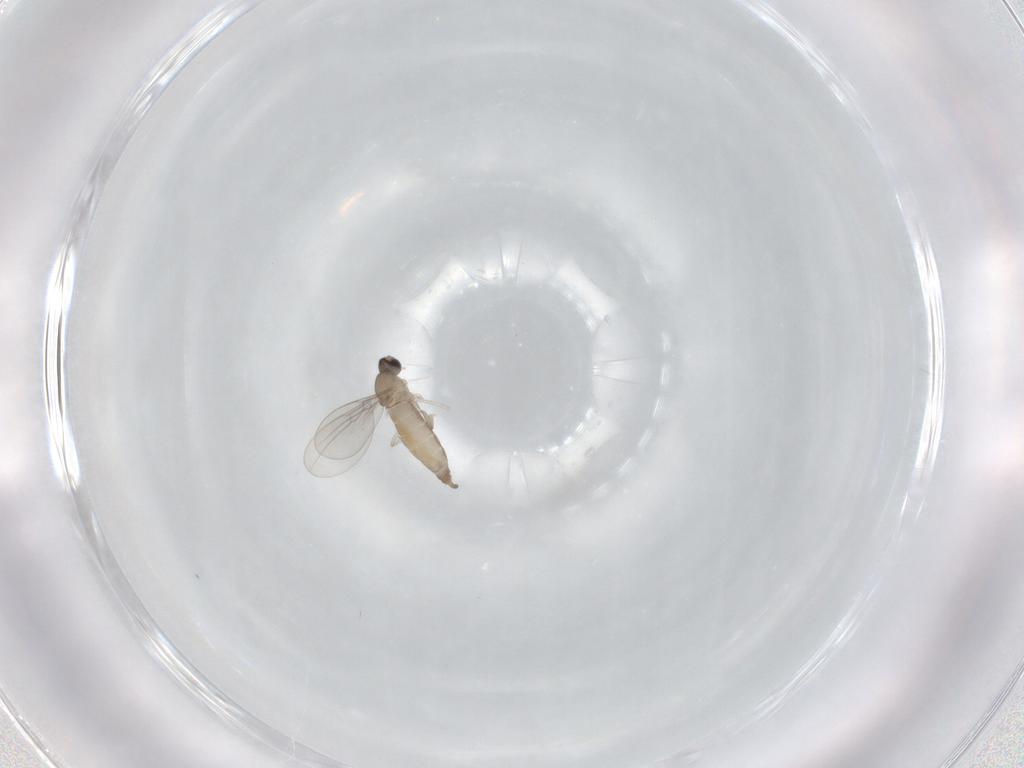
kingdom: Animalia
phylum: Arthropoda
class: Insecta
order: Diptera
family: Cecidomyiidae
